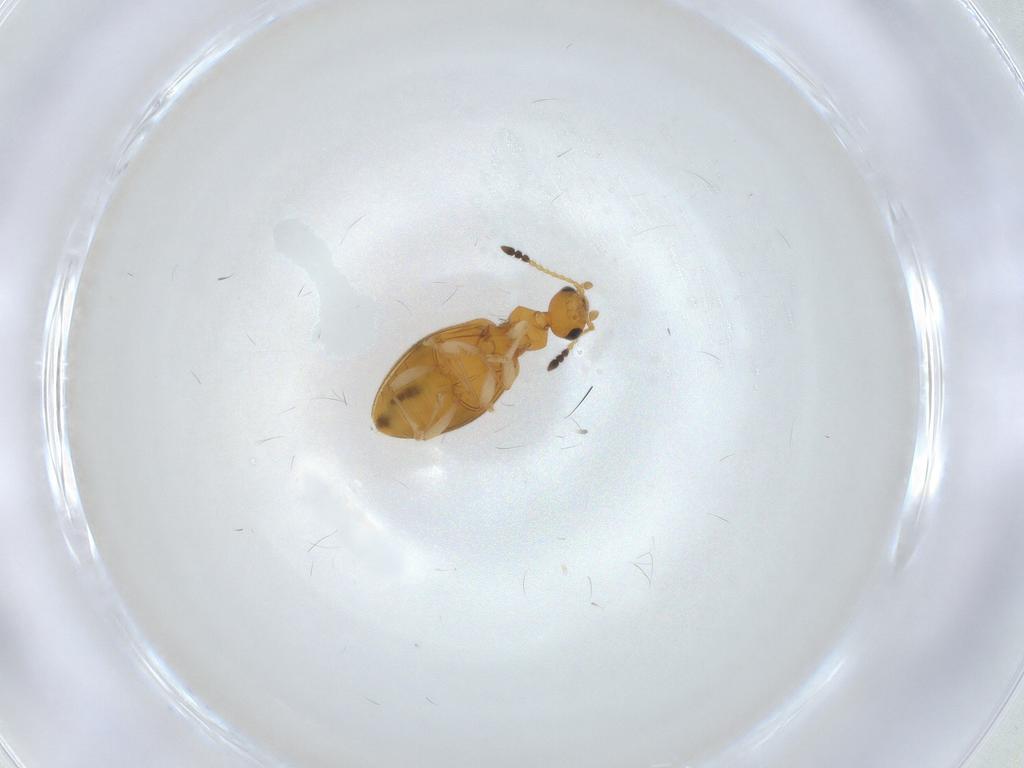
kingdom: Animalia
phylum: Arthropoda
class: Insecta
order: Coleoptera
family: Anthicidae
